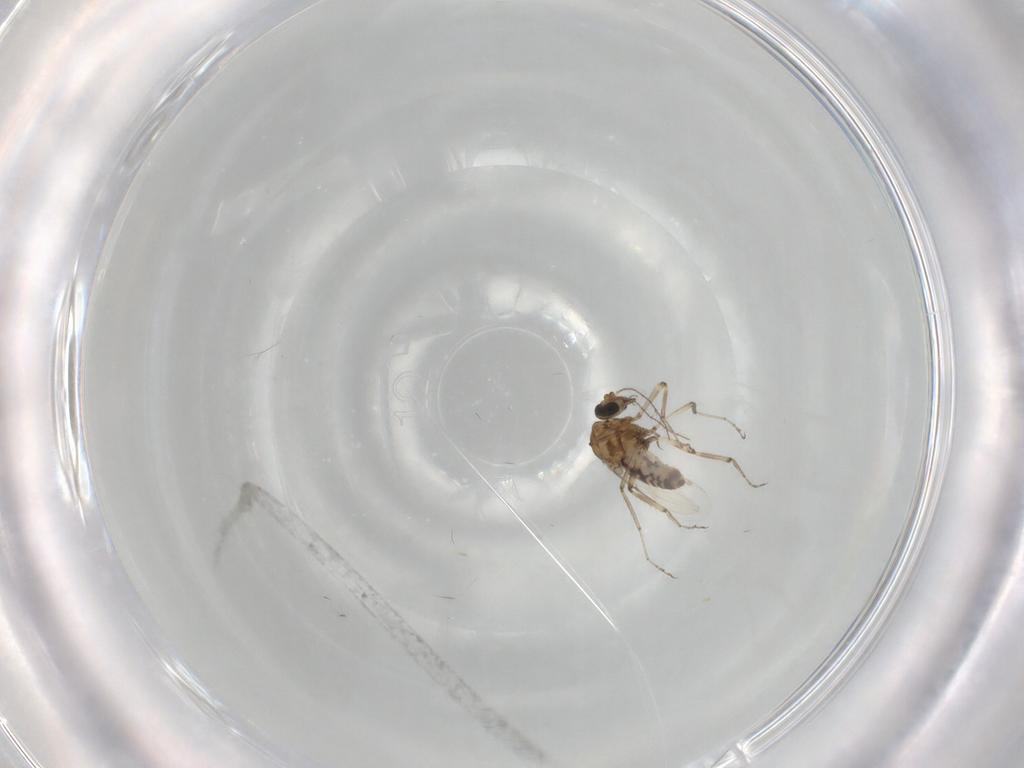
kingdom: Animalia
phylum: Arthropoda
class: Insecta
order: Diptera
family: Ceratopogonidae
